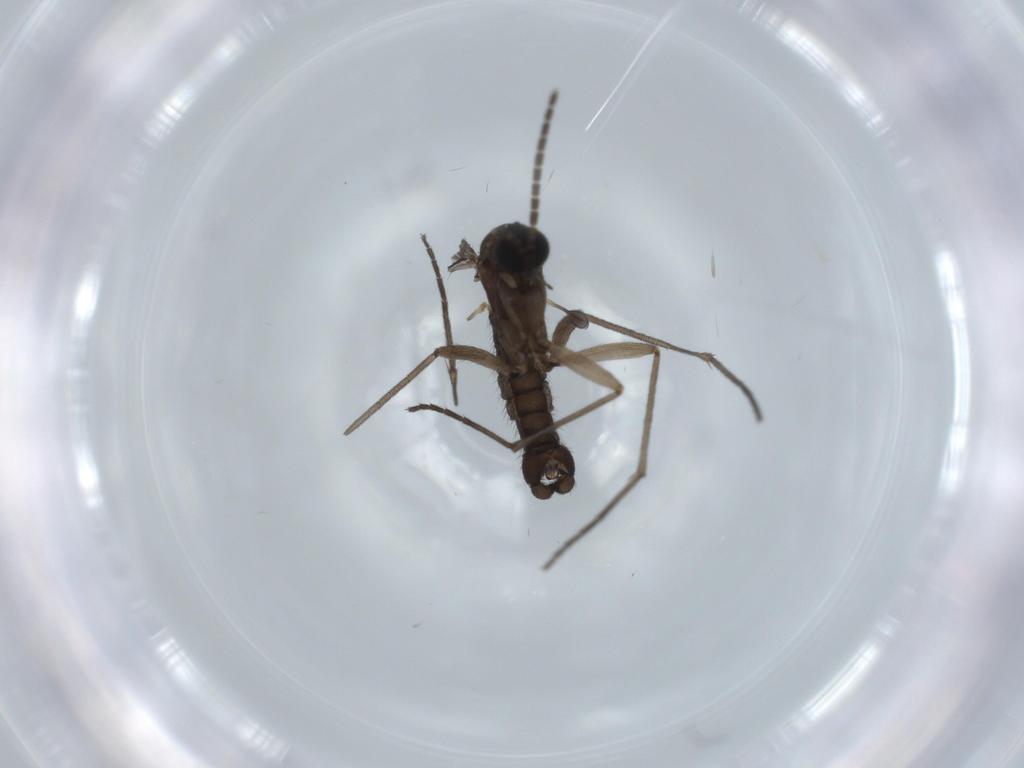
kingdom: Animalia
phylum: Arthropoda
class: Insecta
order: Diptera
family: Sciaridae
